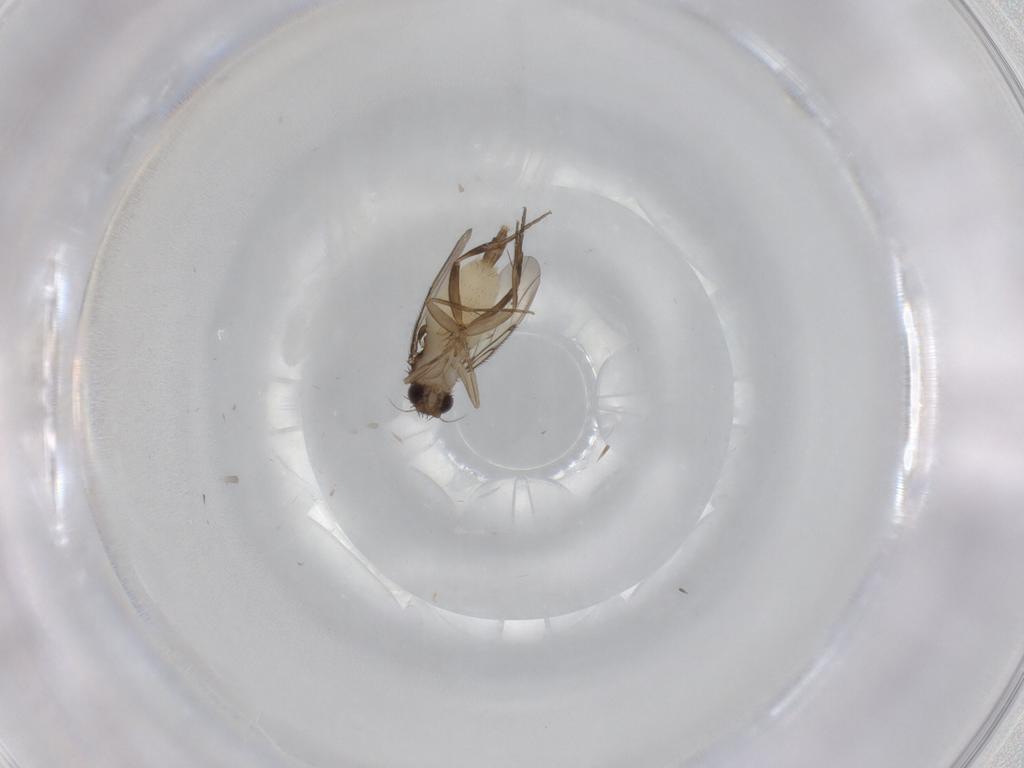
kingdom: Animalia
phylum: Arthropoda
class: Insecta
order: Diptera
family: Phoridae
